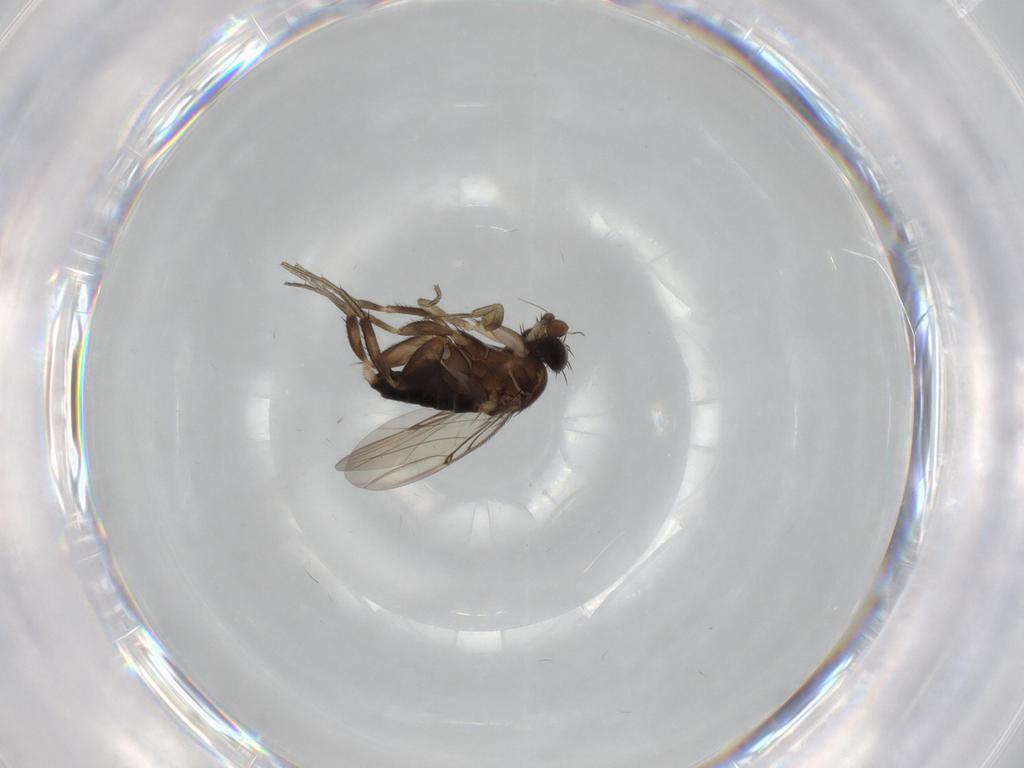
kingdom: Animalia
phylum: Arthropoda
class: Insecta
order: Diptera
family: Phoridae
